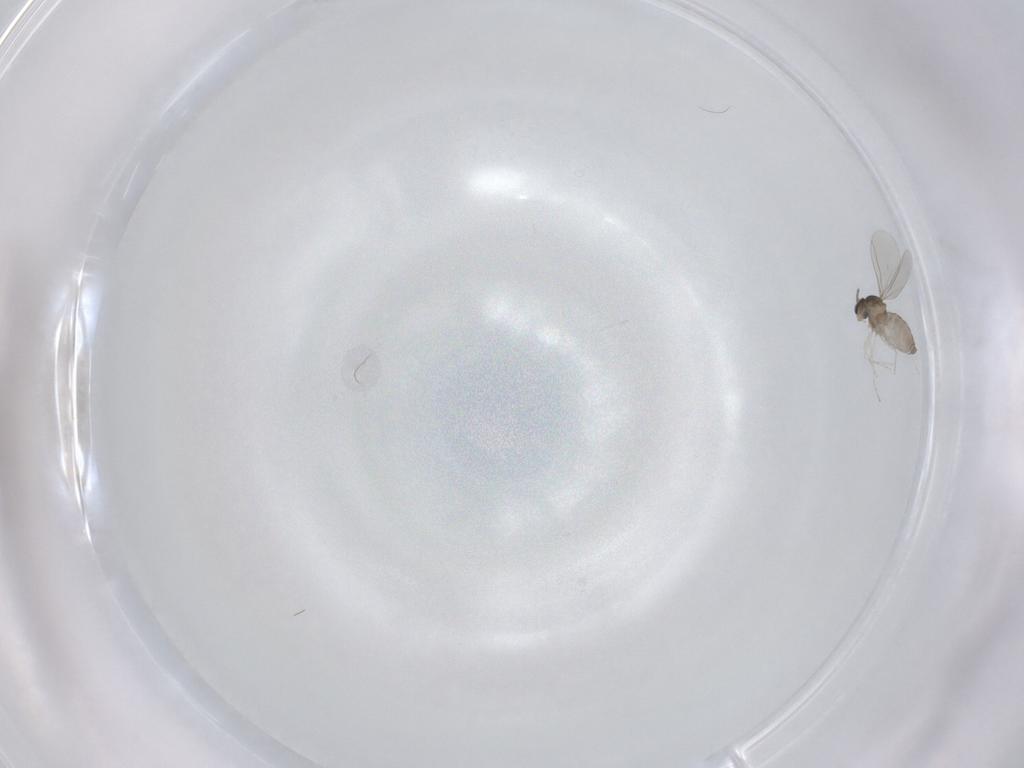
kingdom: Animalia
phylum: Arthropoda
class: Insecta
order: Diptera
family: Cecidomyiidae
